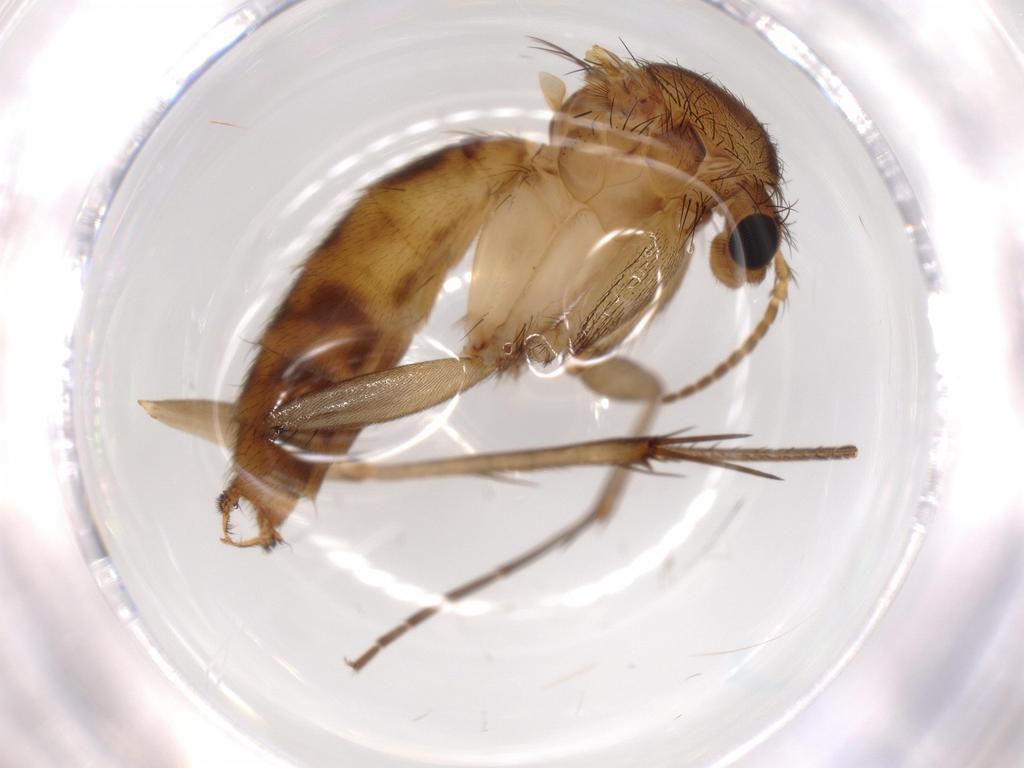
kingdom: Animalia
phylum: Arthropoda
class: Insecta
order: Diptera
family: Mycetophilidae
